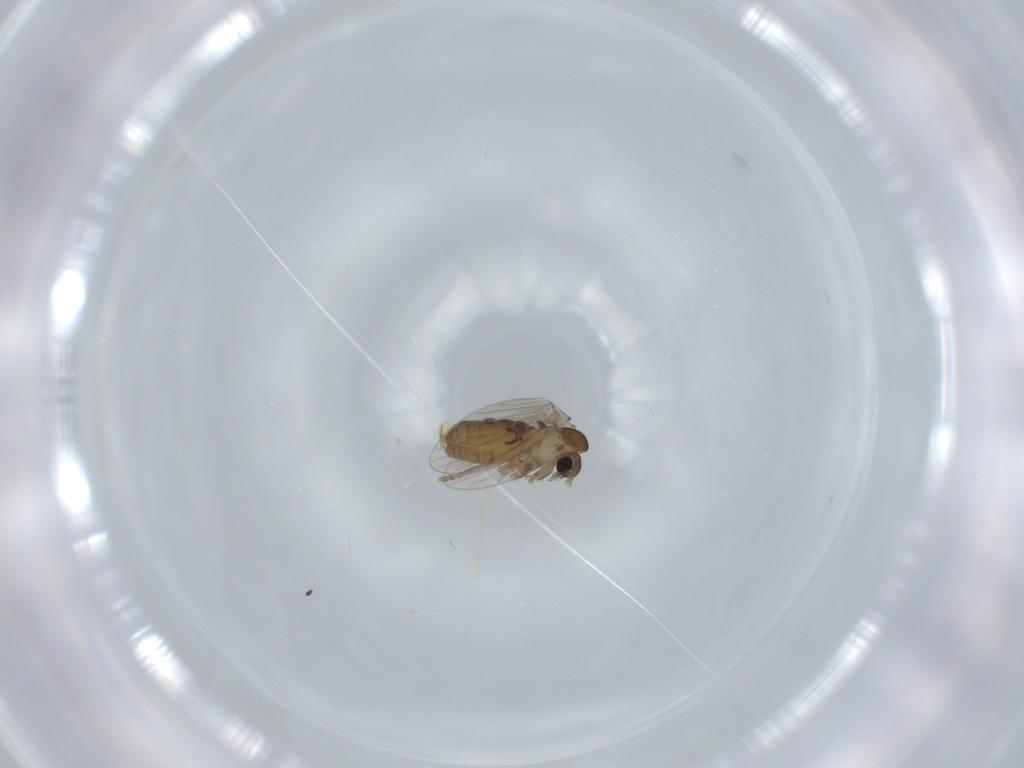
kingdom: Animalia
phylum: Arthropoda
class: Insecta
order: Diptera
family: Psychodidae
